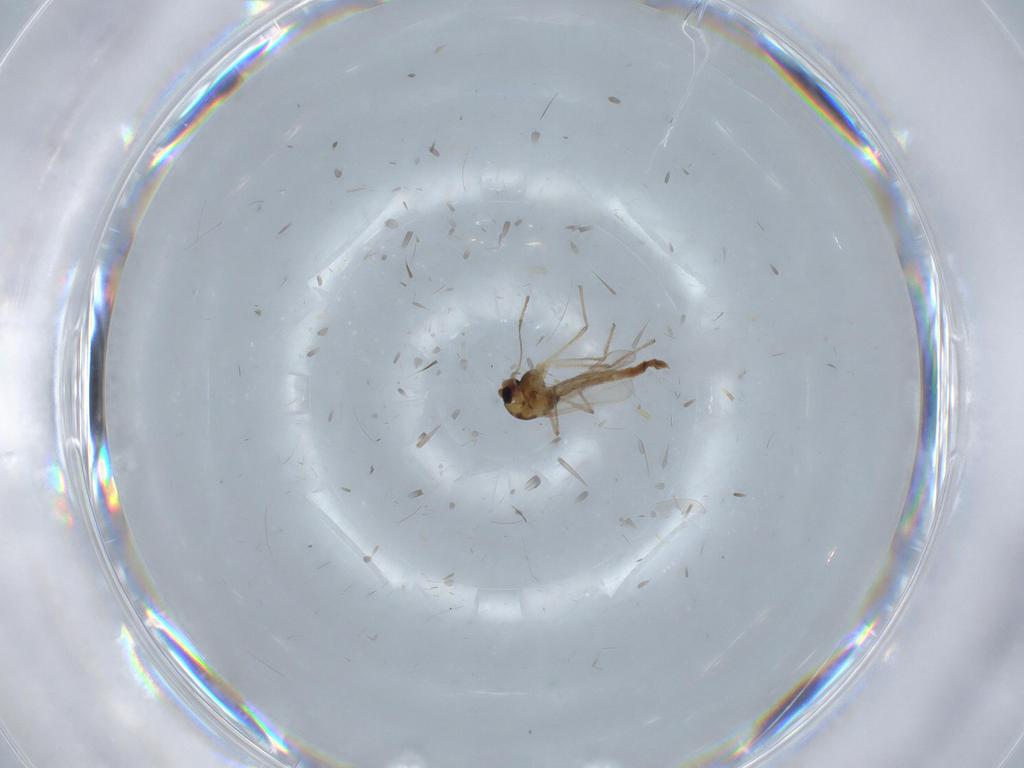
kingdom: Animalia
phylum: Arthropoda
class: Insecta
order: Diptera
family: Chironomidae
